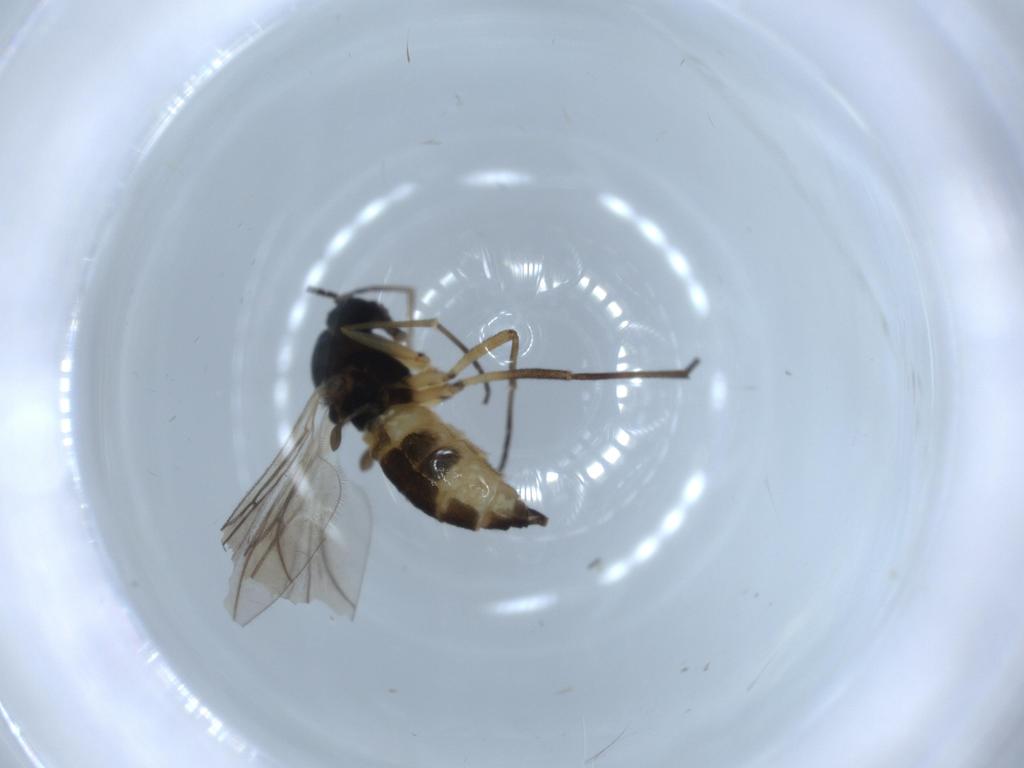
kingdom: Animalia
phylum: Arthropoda
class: Insecta
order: Diptera
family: Sciaridae
